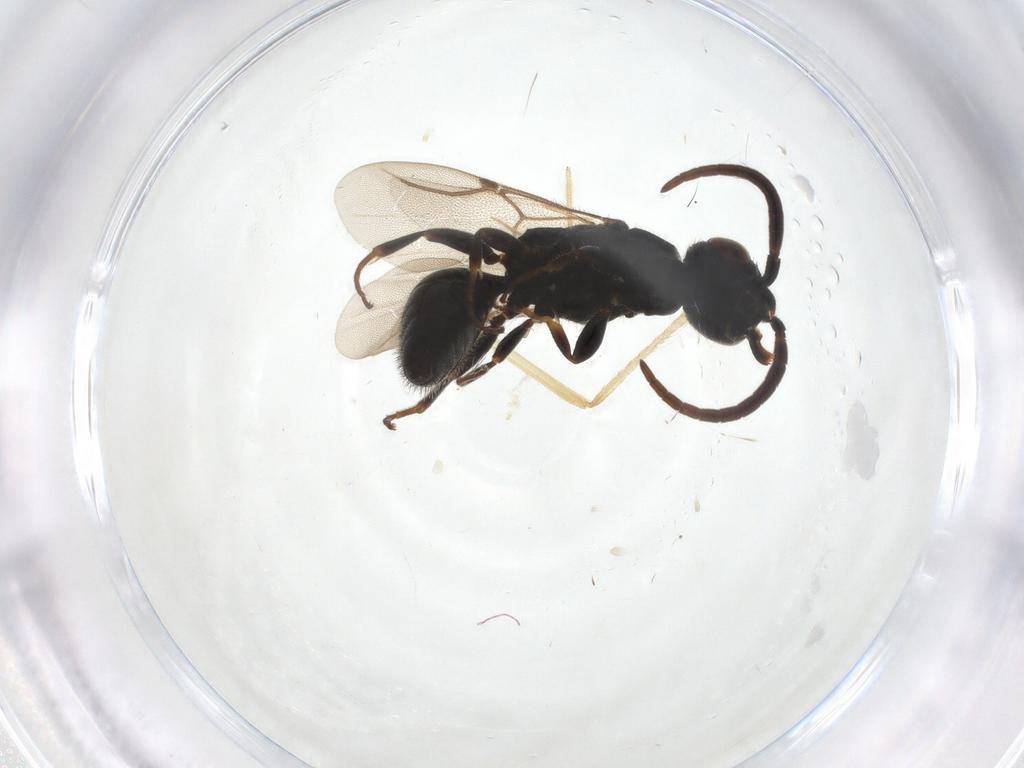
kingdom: Animalia
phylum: Arthropoda
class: Insecta
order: Hymenoptera
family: Bethylidae
